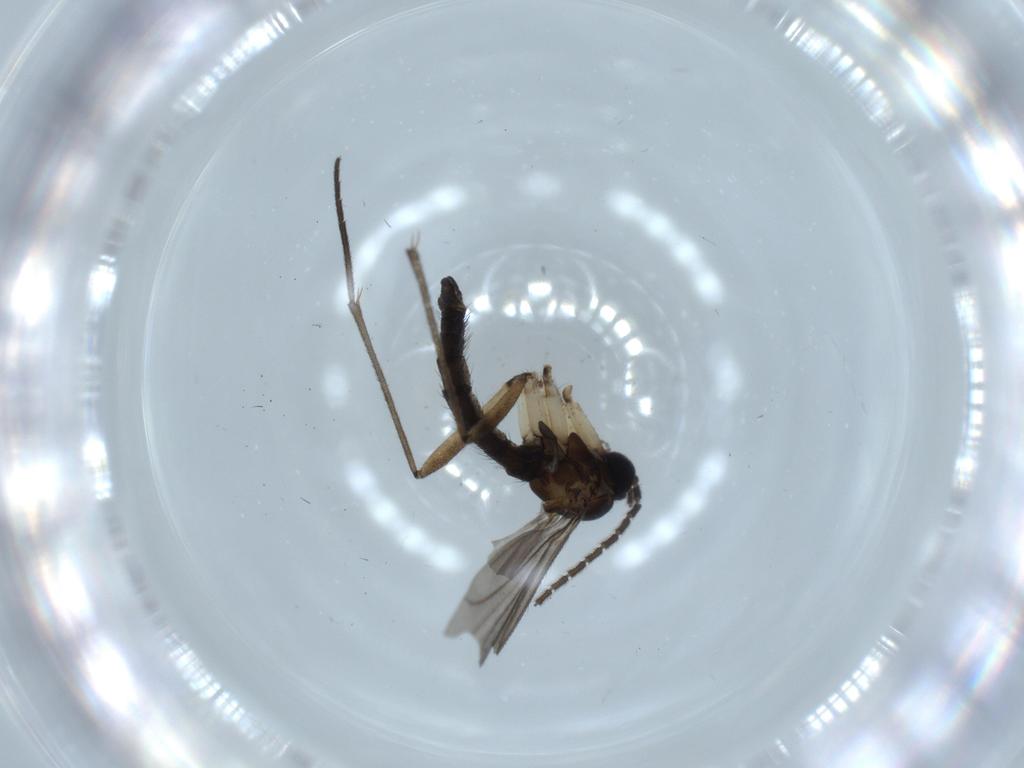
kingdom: Animalia
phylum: Arthropoda
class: Insecta
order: Diptera
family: Sciaridae
